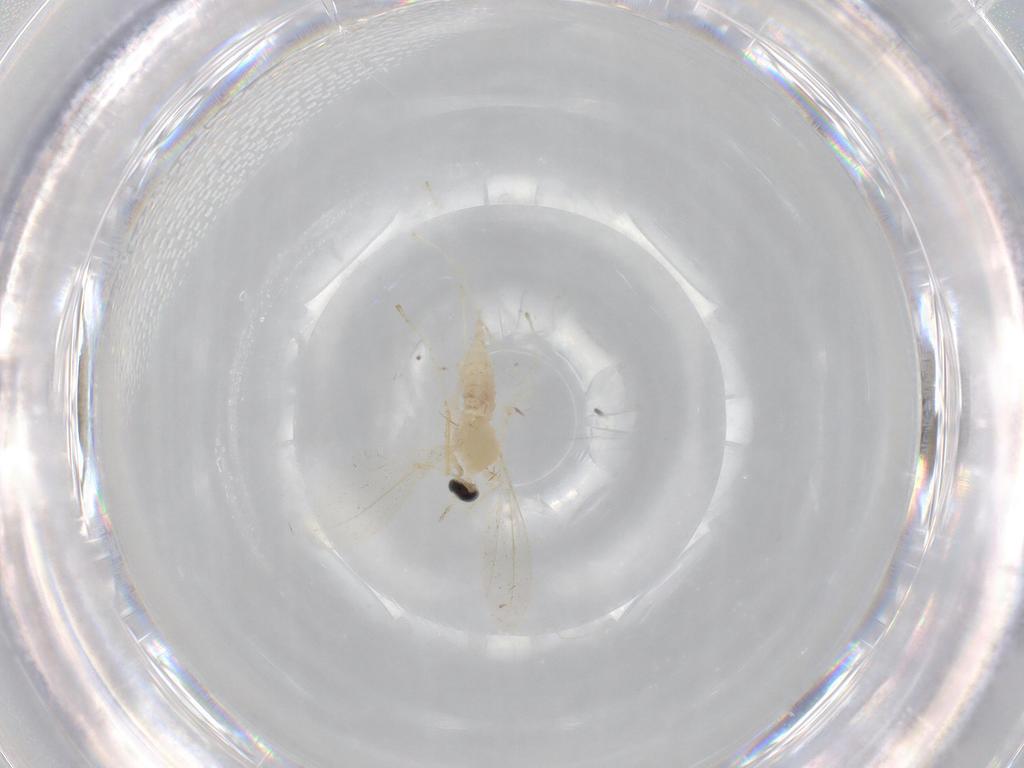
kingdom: Animalia
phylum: Arthropoda
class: Insecta
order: Diptera
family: Cecidomyiidae
